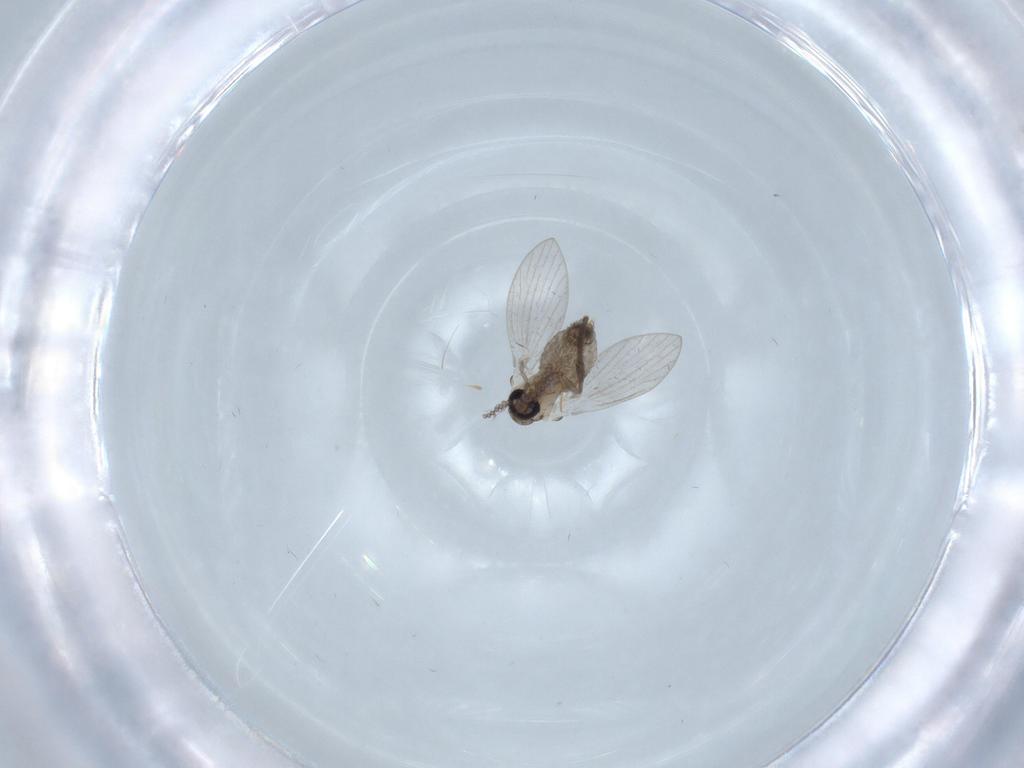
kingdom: Animalia
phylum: Arthropoda
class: Insecta
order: Diptera
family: Psychodidae
